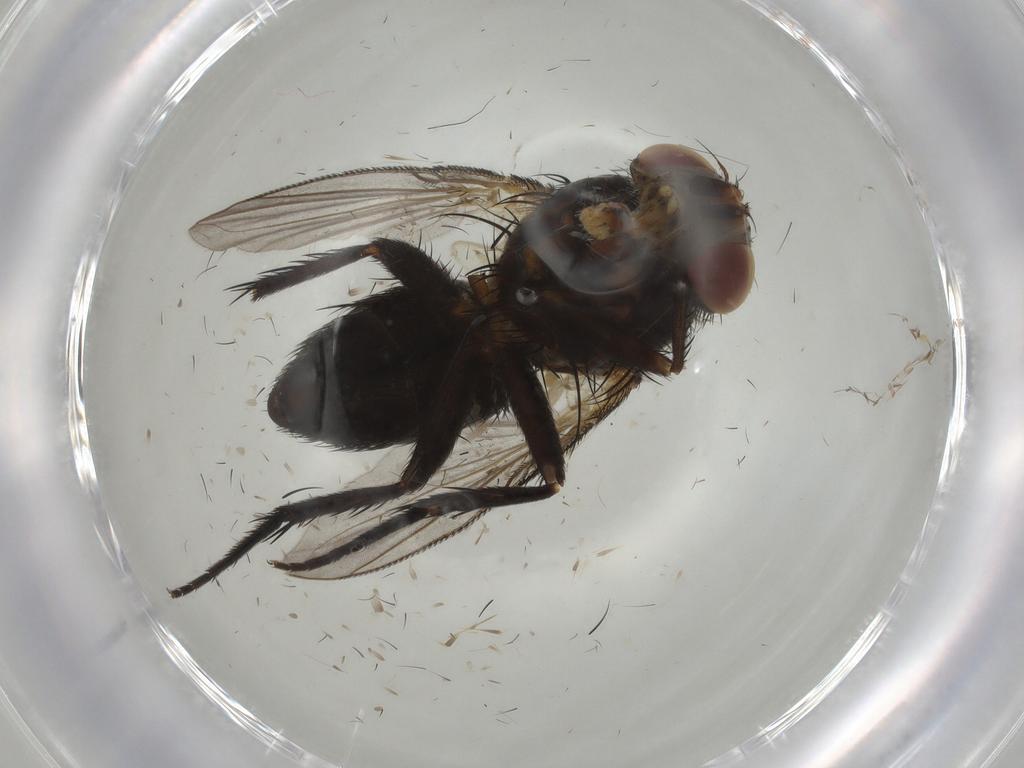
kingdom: Animalia
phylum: Arthropoda
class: Insecta
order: Diptera
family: Tachinidae
